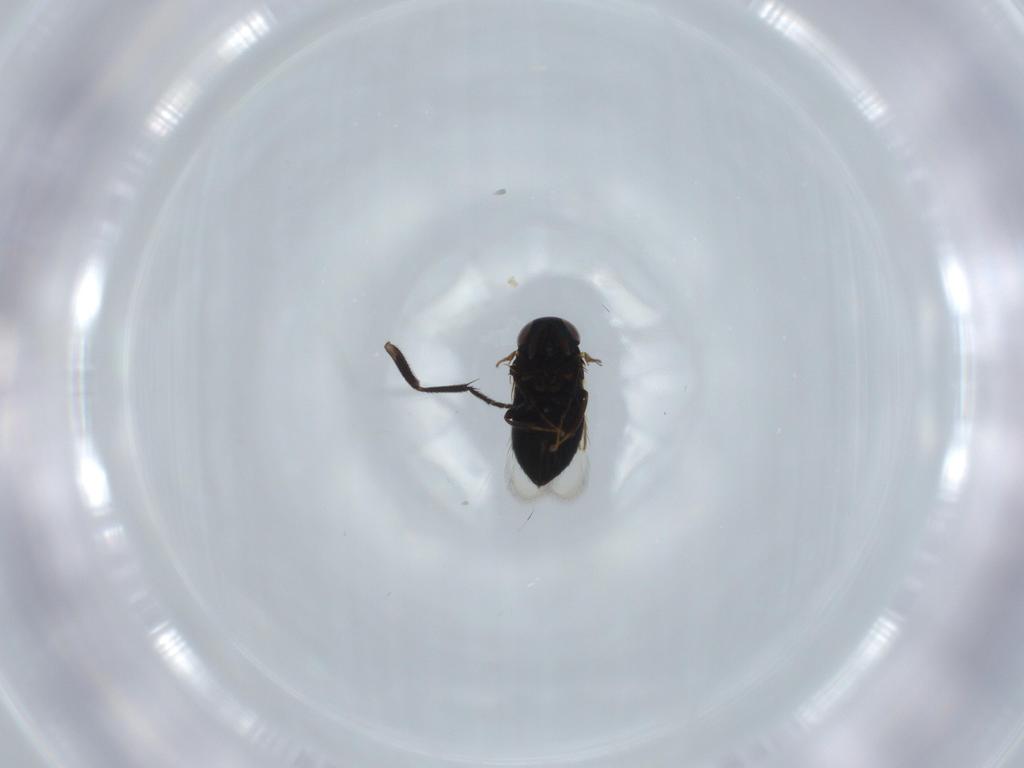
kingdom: Animalia
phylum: Arthropoda
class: Insecta
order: Hymenoptera
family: Signiphoridae
